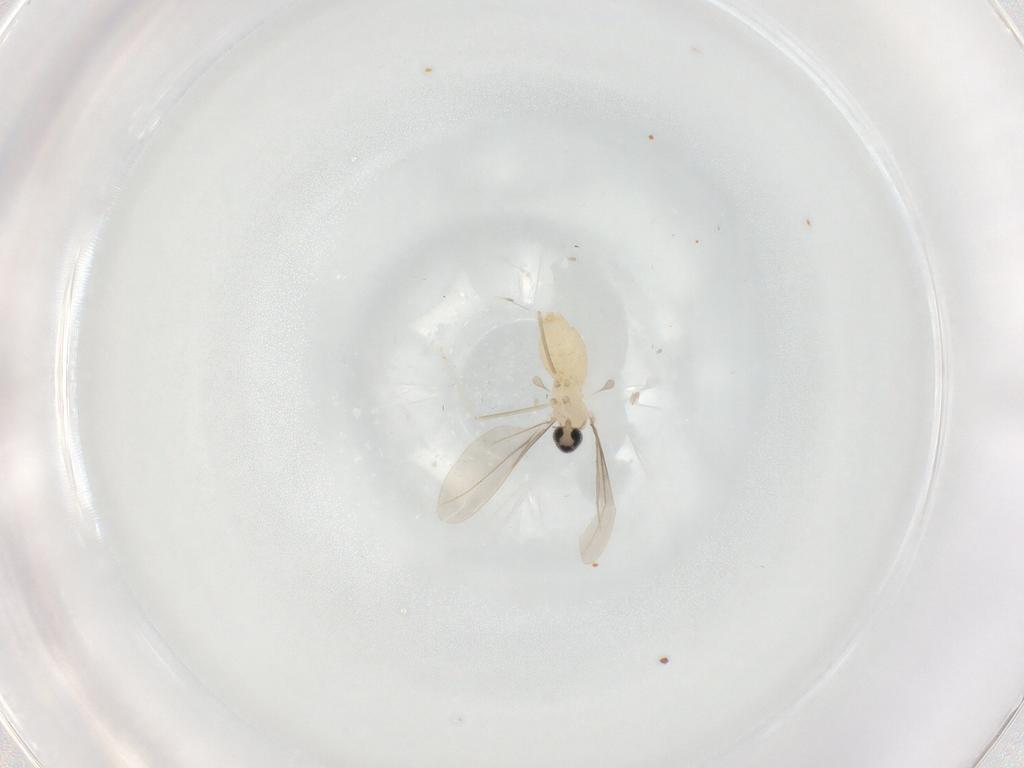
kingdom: Animalia
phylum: Arthropoda
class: Insecta
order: Diptera
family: Cecidomyiidae
